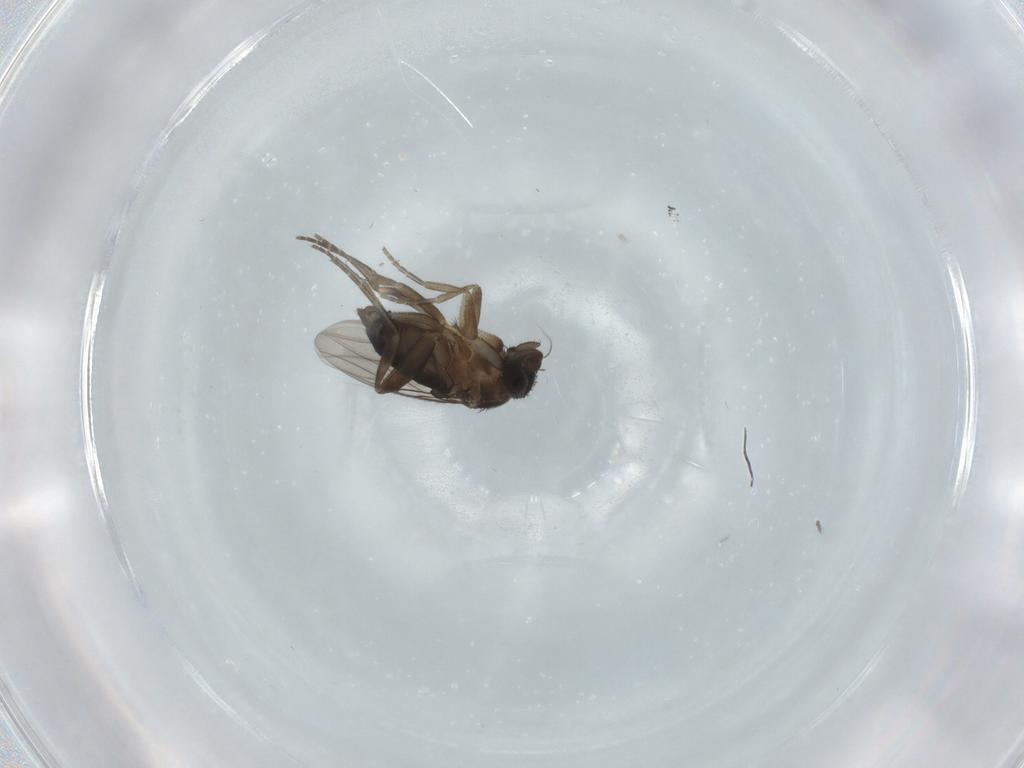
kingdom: Animalia
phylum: Arthropoda
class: Insecta
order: Diptera
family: Phoridae
